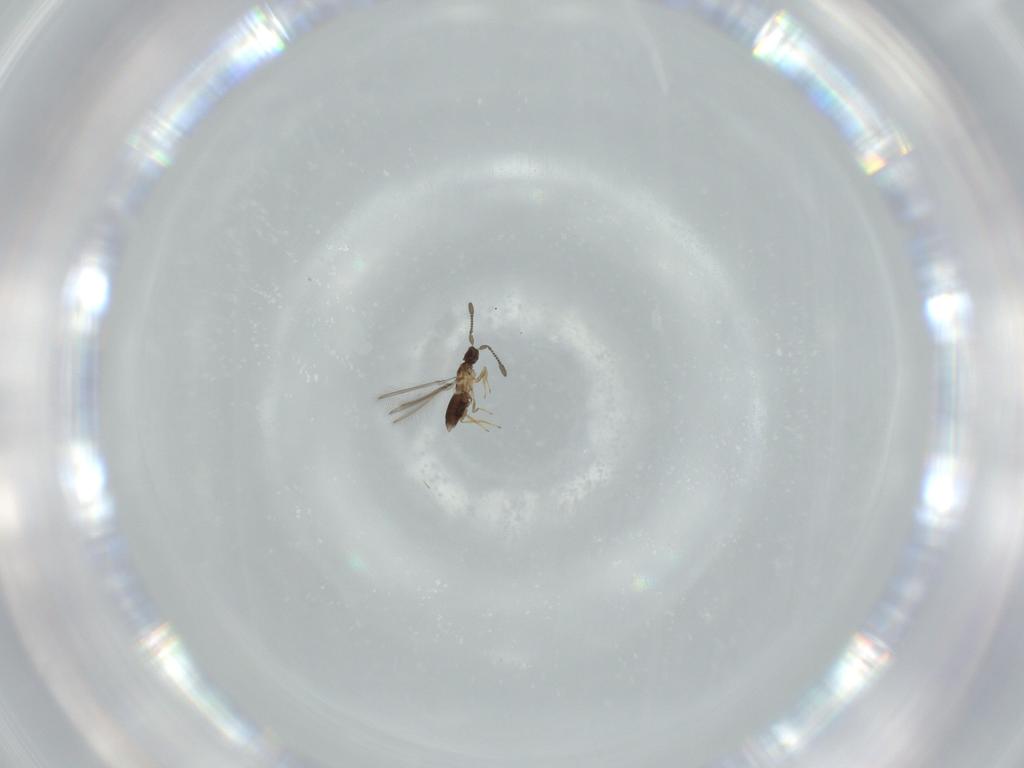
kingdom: Animalia
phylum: Arthropoda
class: Insecta
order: Hymenoptera
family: Mymaridae
